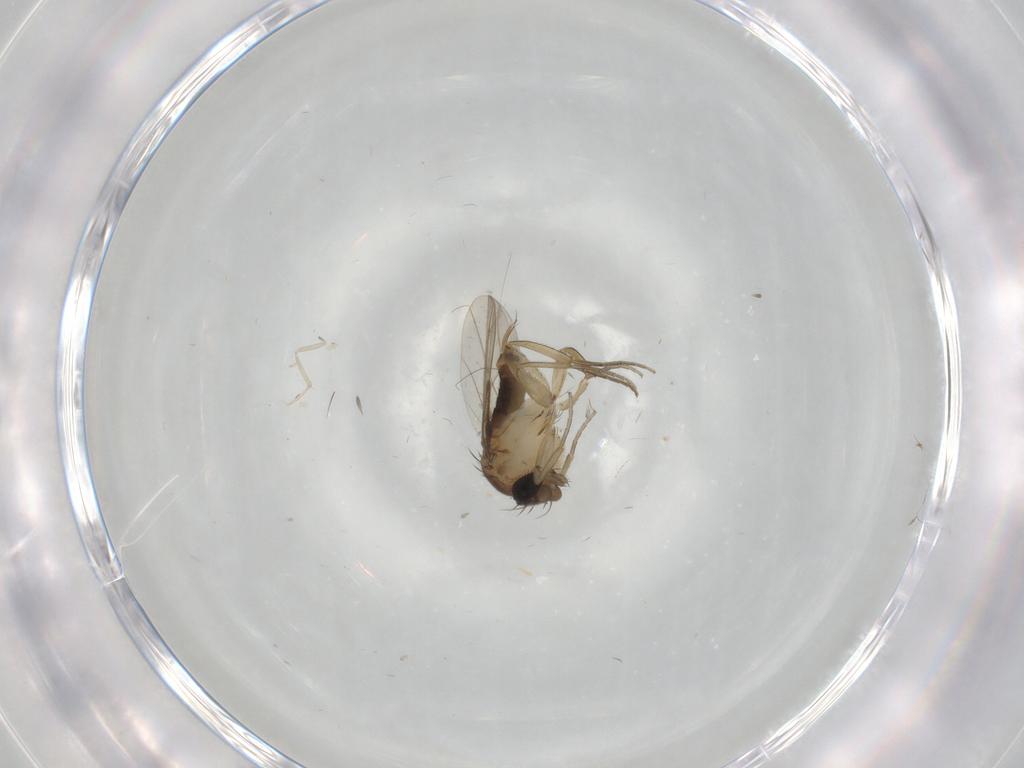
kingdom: Animalia
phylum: Arthropoda
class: Insecta
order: Diptera
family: Phoridae
